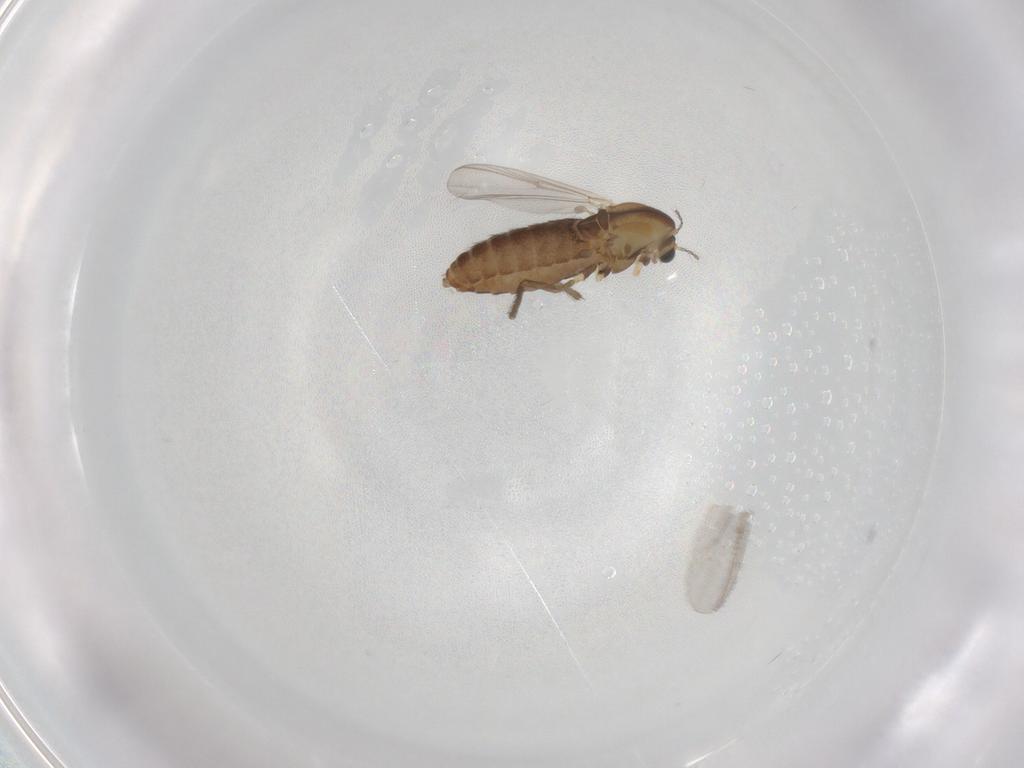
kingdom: Animalia
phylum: Arthropoda
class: Insecta
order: Diptera
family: Chironomidae
